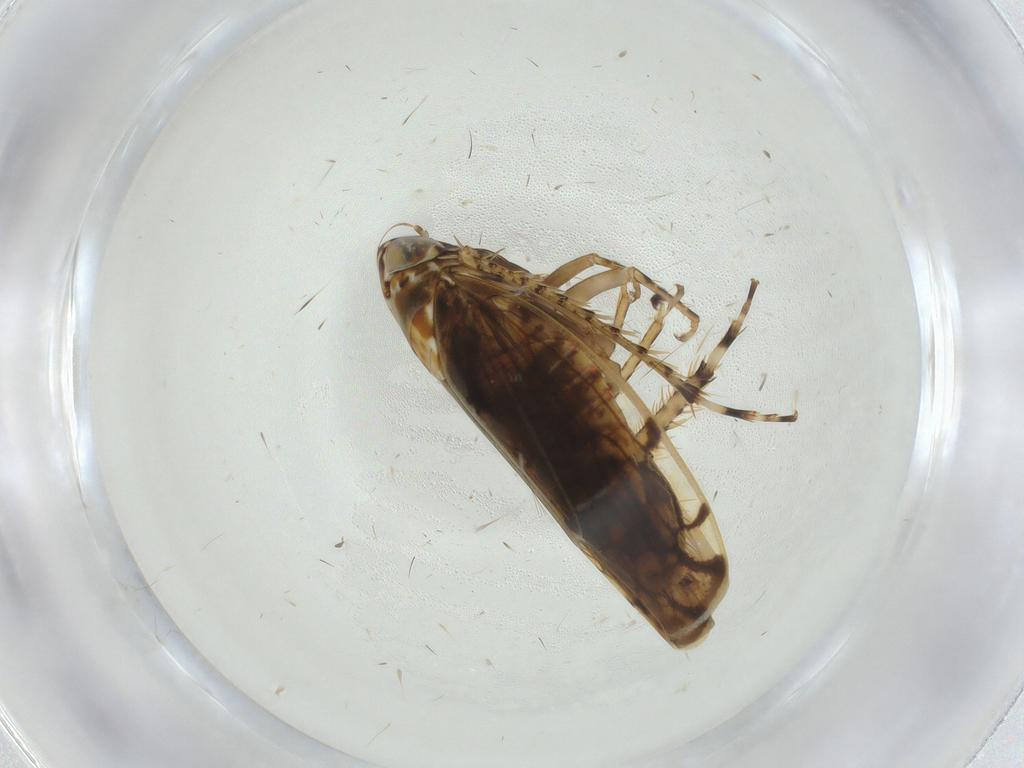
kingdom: Animalia
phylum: Arthropoda
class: Insecta
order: Hemiptera
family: Cicadellidae
